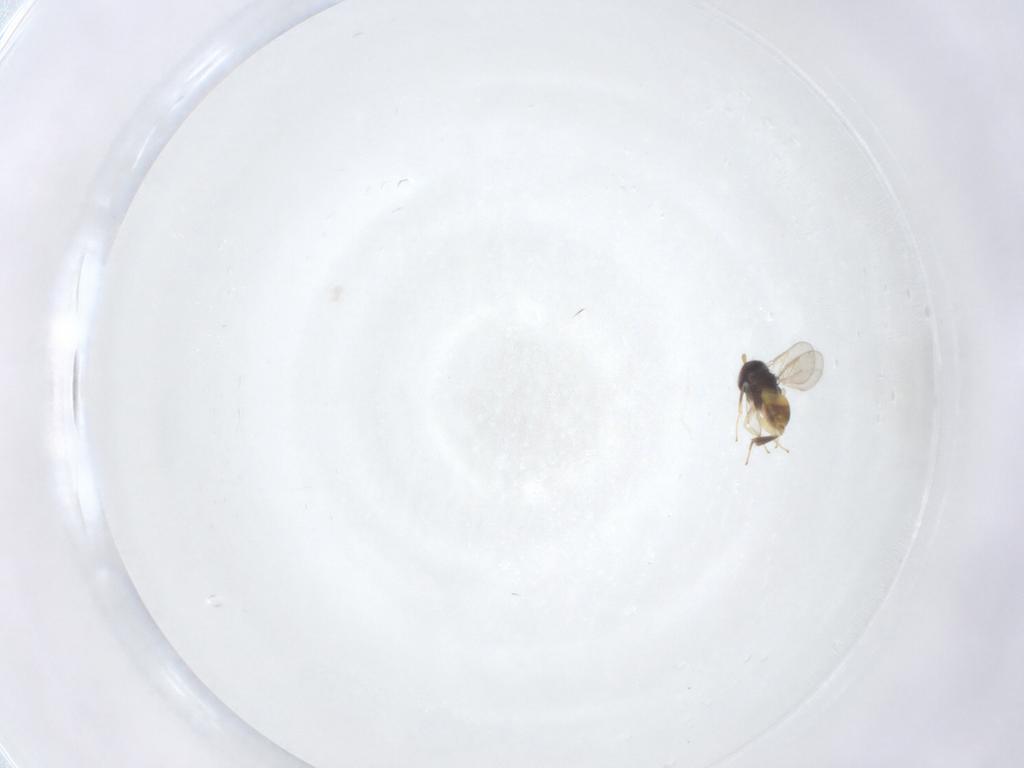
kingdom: Animalia
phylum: Arthropoda
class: Insecta
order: Hymenoptera
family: Aphelinidae
